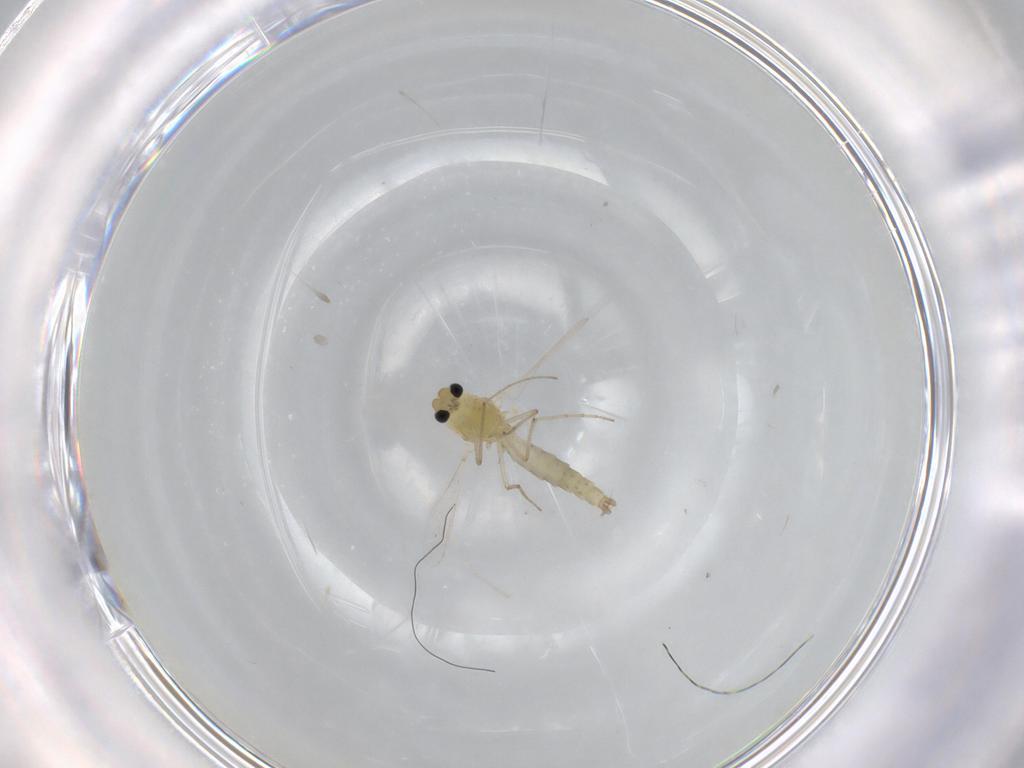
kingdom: Animalia
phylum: Arthropoda
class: Insecta
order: Diptera
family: Chironomidae
